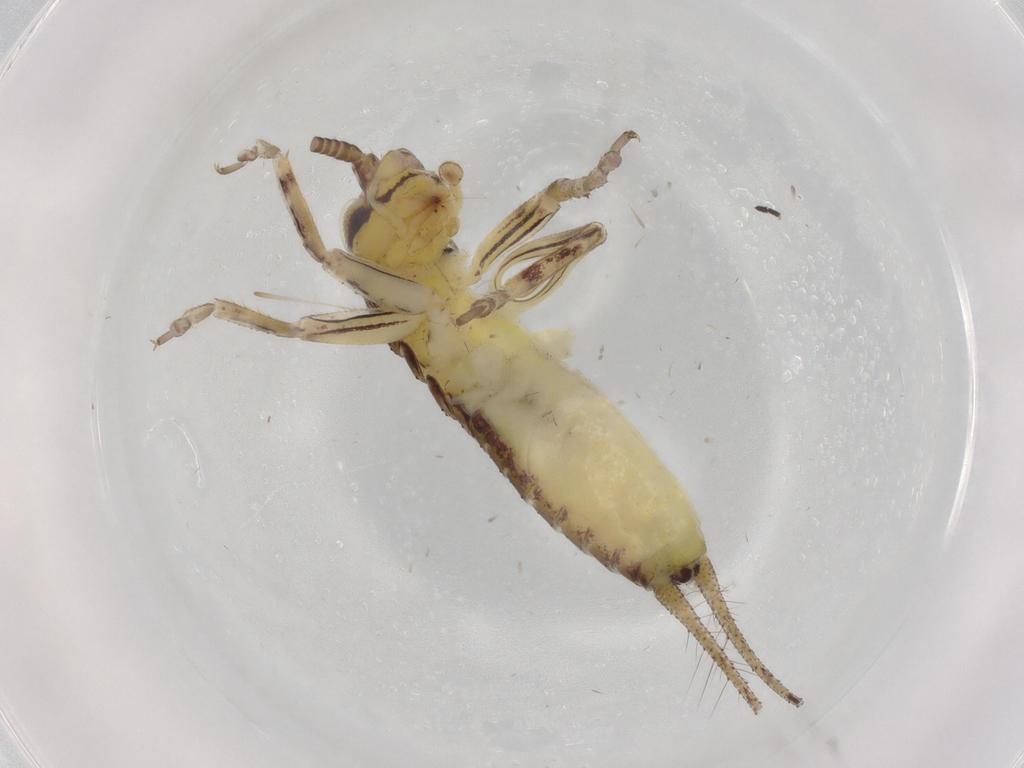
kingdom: Animalia
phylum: Arthropoda
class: Insecta
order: Orthoptera
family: Gryllidae
